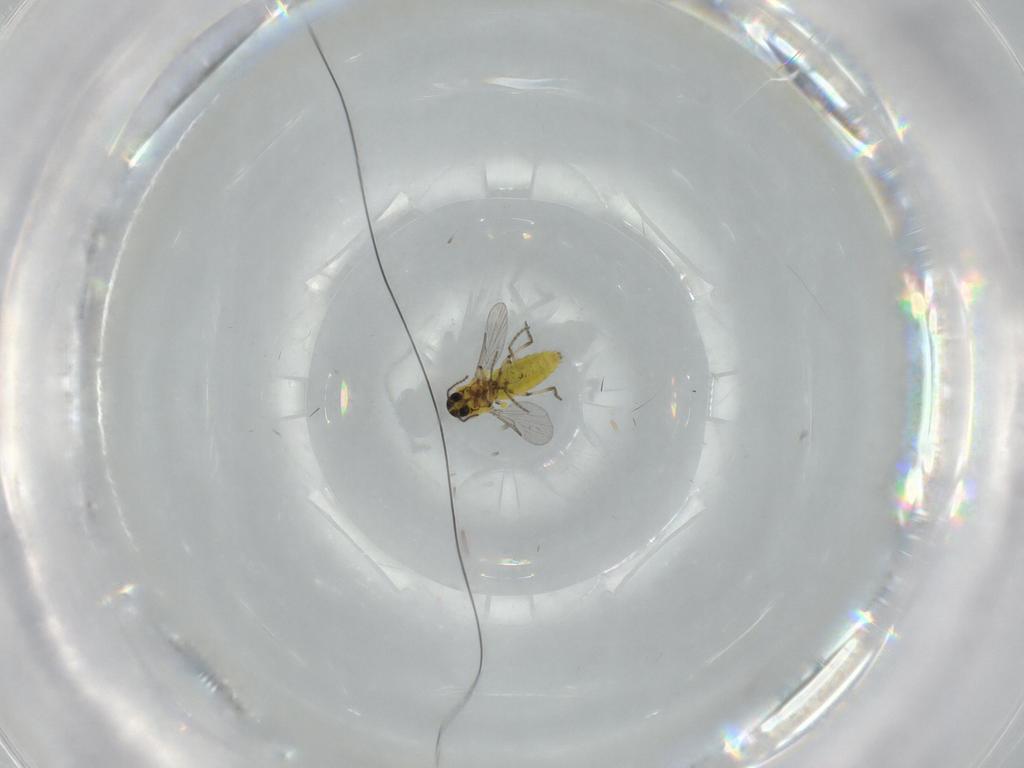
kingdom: Animalia
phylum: Arthropoda
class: Insecta
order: Diptera
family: Ceratopogonidae
